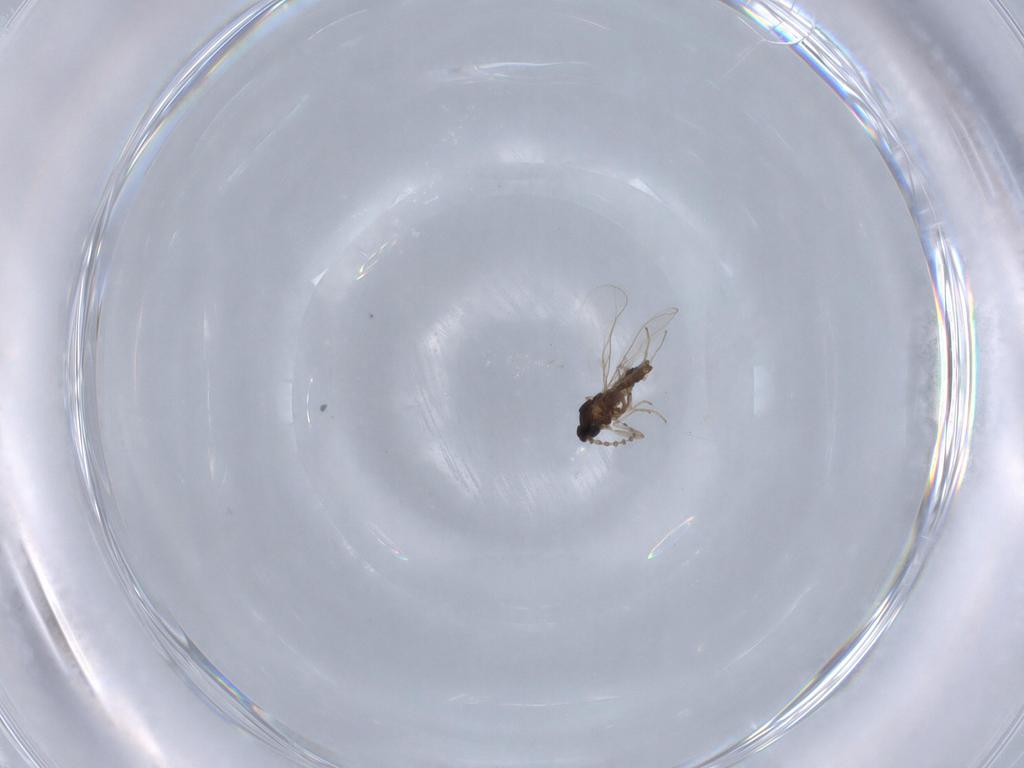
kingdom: Animalia
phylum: Arthropoda
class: Insecta
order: Diptera
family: Cecidomyiidae
